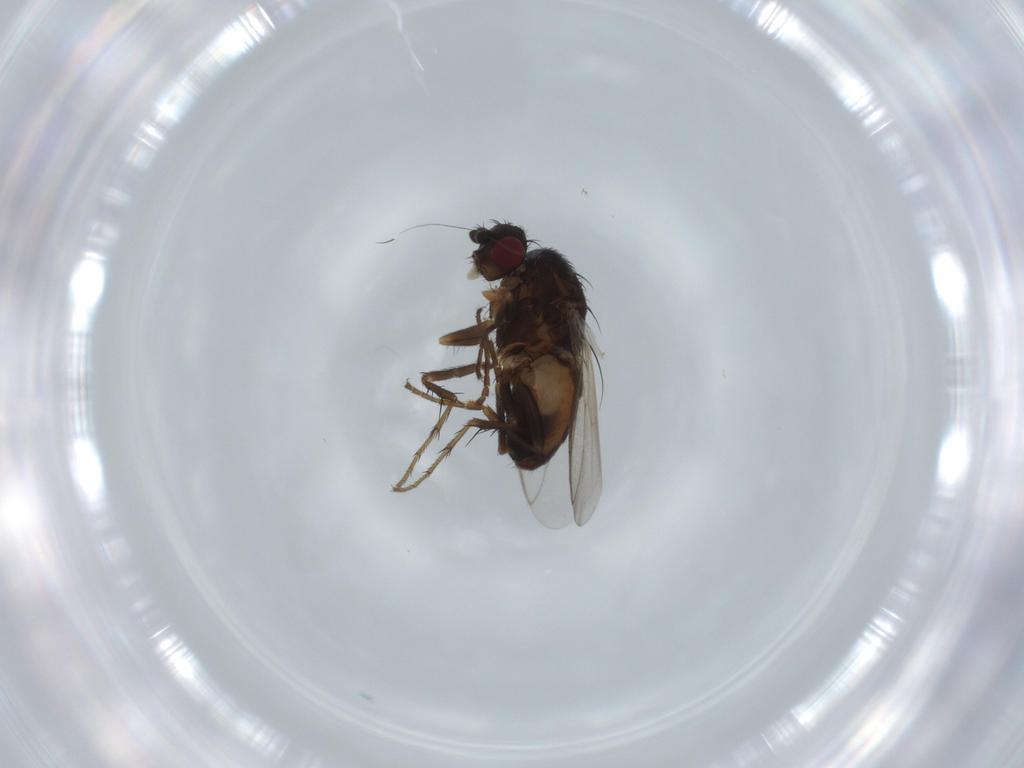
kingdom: Animalia
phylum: Arthropoda
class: Insecta
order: Diptera
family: Sphaeroceridae
